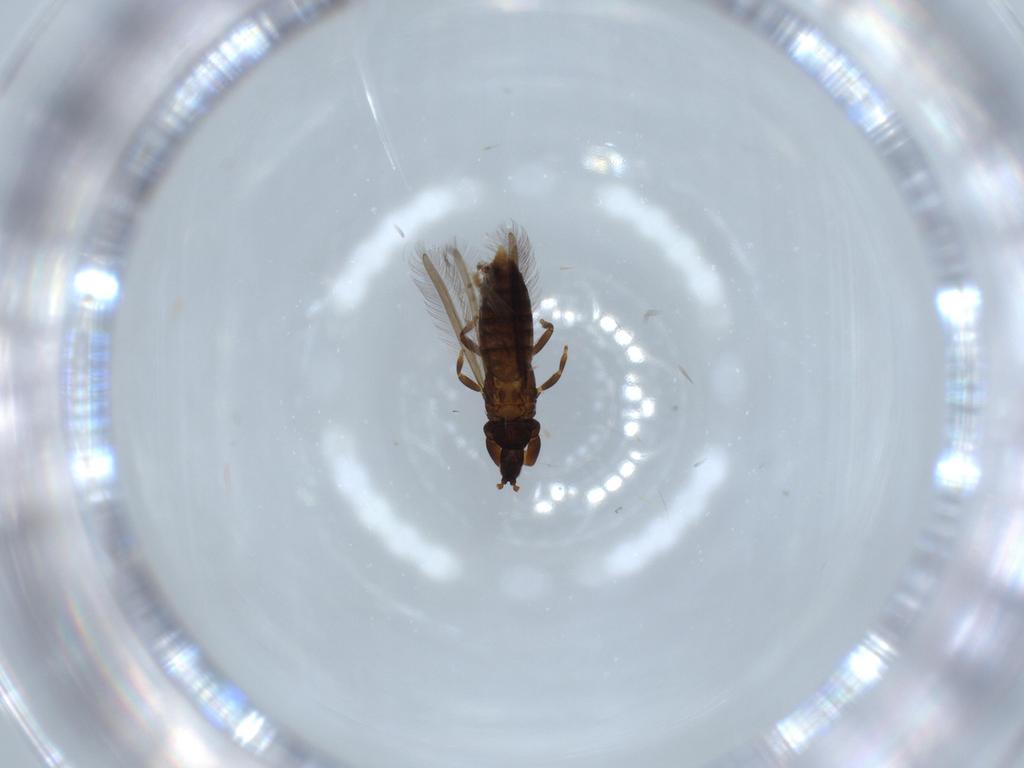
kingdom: Animalia
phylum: Arthropoda
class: Insecta
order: Thysanoptera
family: Phlaeothripidae
